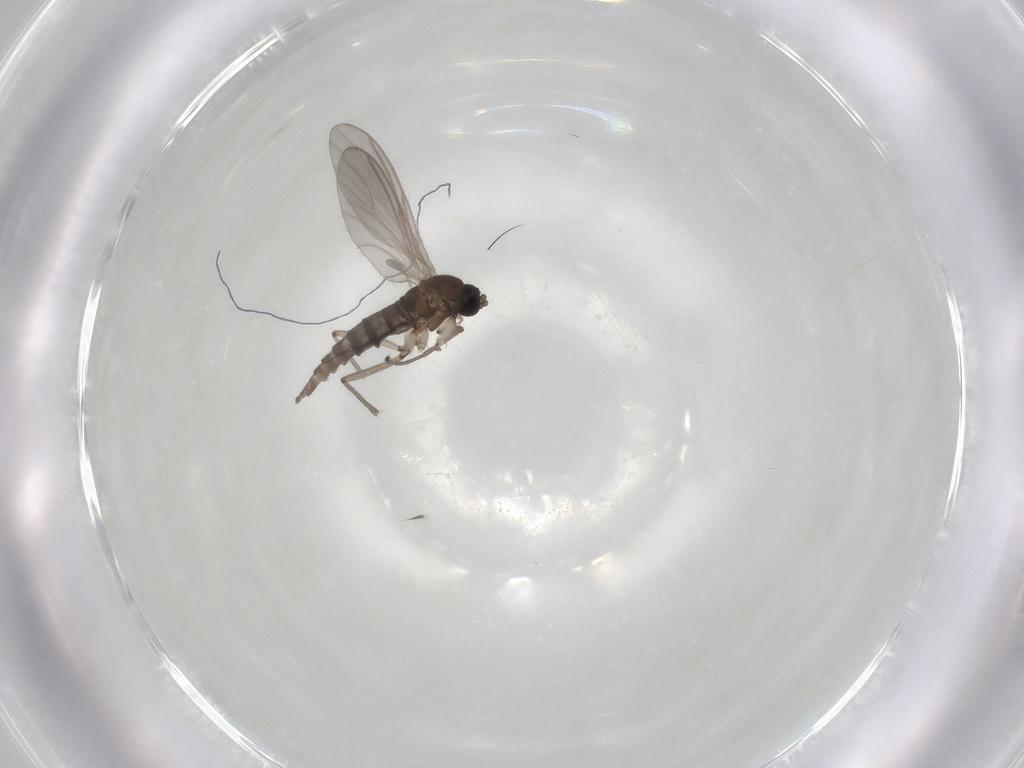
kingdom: Animalia
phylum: Arthropoda
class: Insecta
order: Diptera
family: Sciaridae
